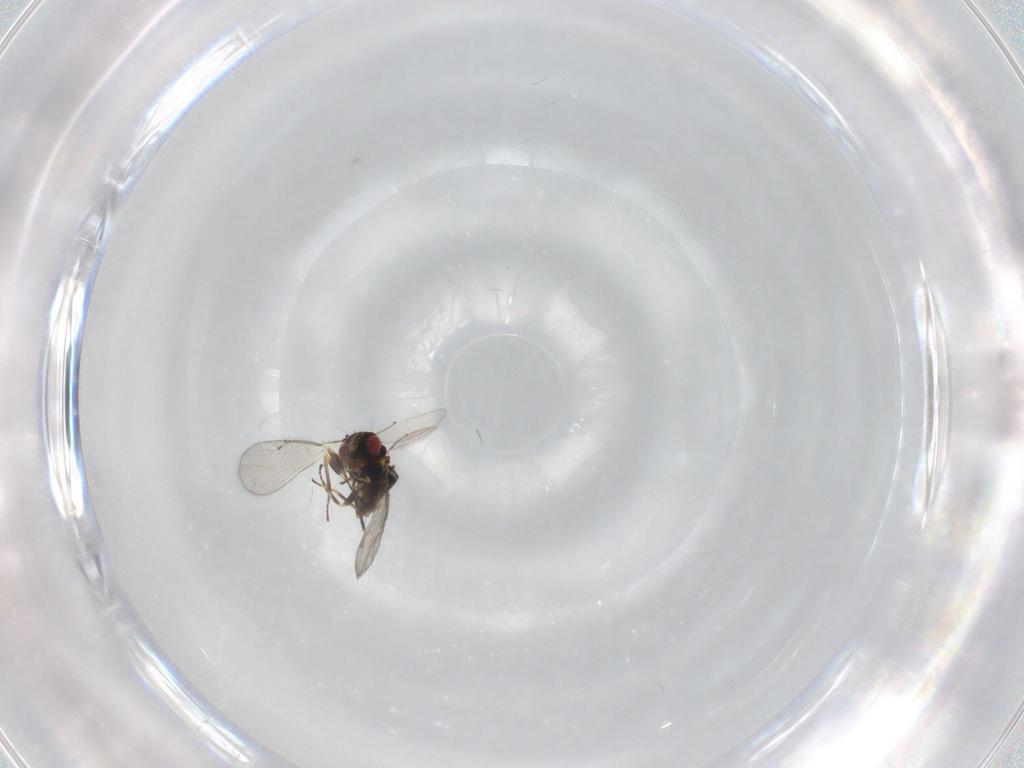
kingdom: Animalia
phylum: Arthropoda
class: Insecta
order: Hymenoptera
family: Eulophidae
